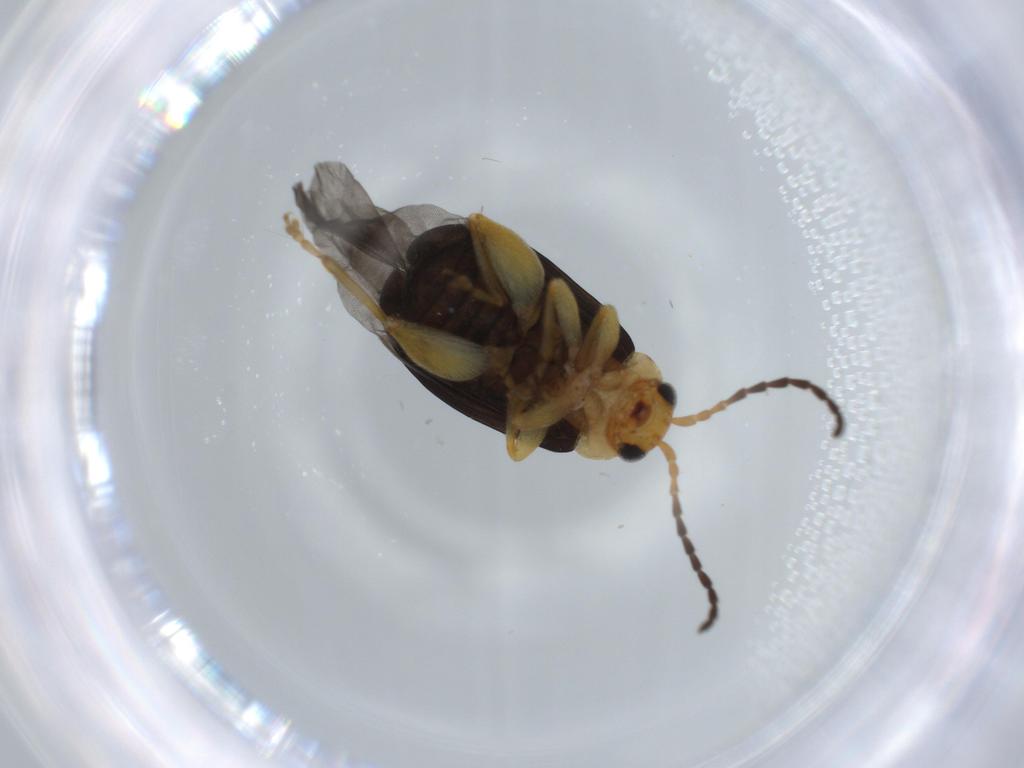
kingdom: Animalia
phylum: Arthropoda
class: Insecta
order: Coleoptera
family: Chrysomelidae
